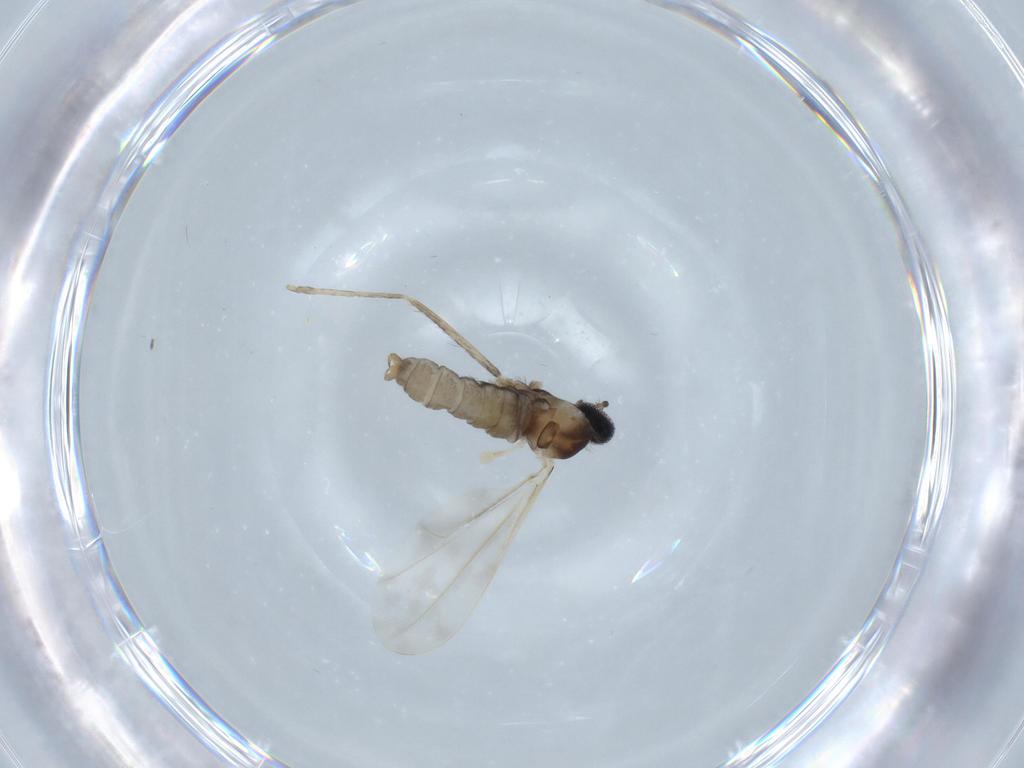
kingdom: Animalia
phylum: Arthropoda
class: Insecta
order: Diptera
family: Cecidomyiidae
